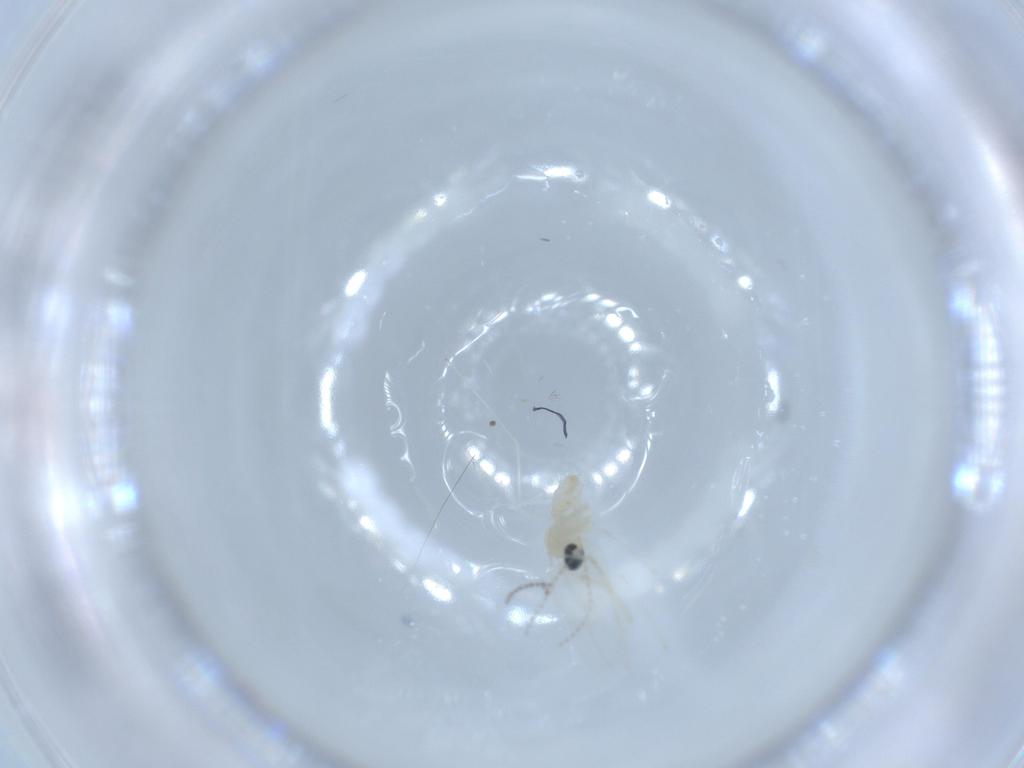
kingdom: Animalia
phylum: Arthropoda
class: Insecta
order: Diptera
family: Cecidomyiidae
